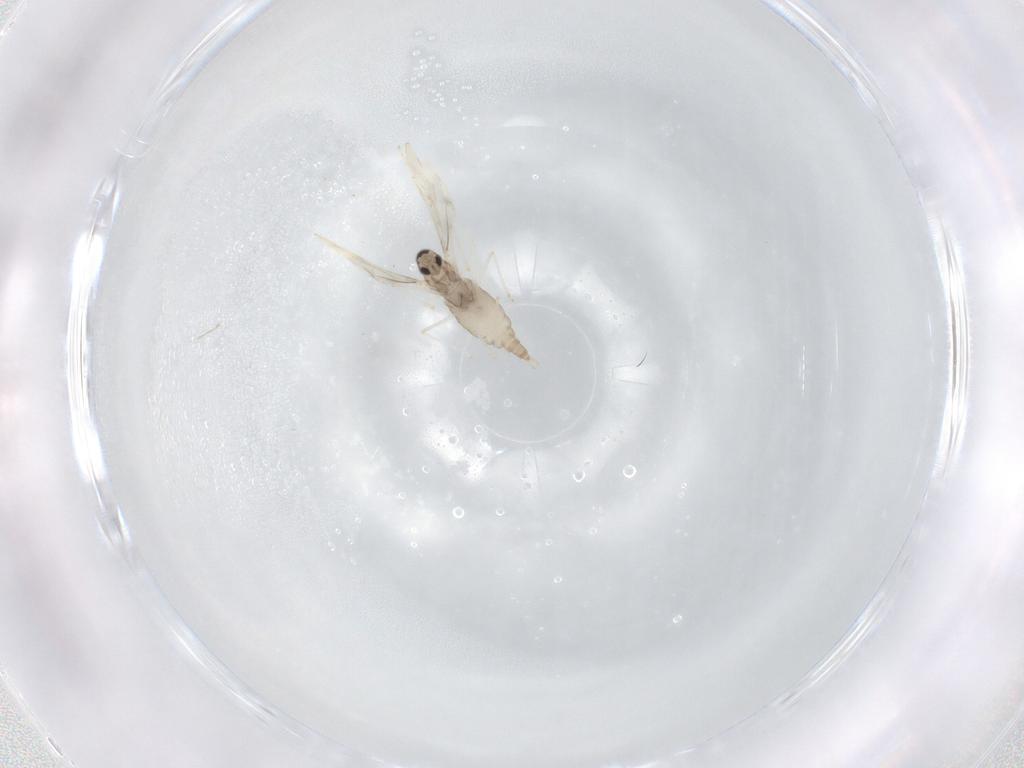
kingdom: Animalia
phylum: Arthropoda
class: Insecta
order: Diptera
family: Cecidomyiidae
